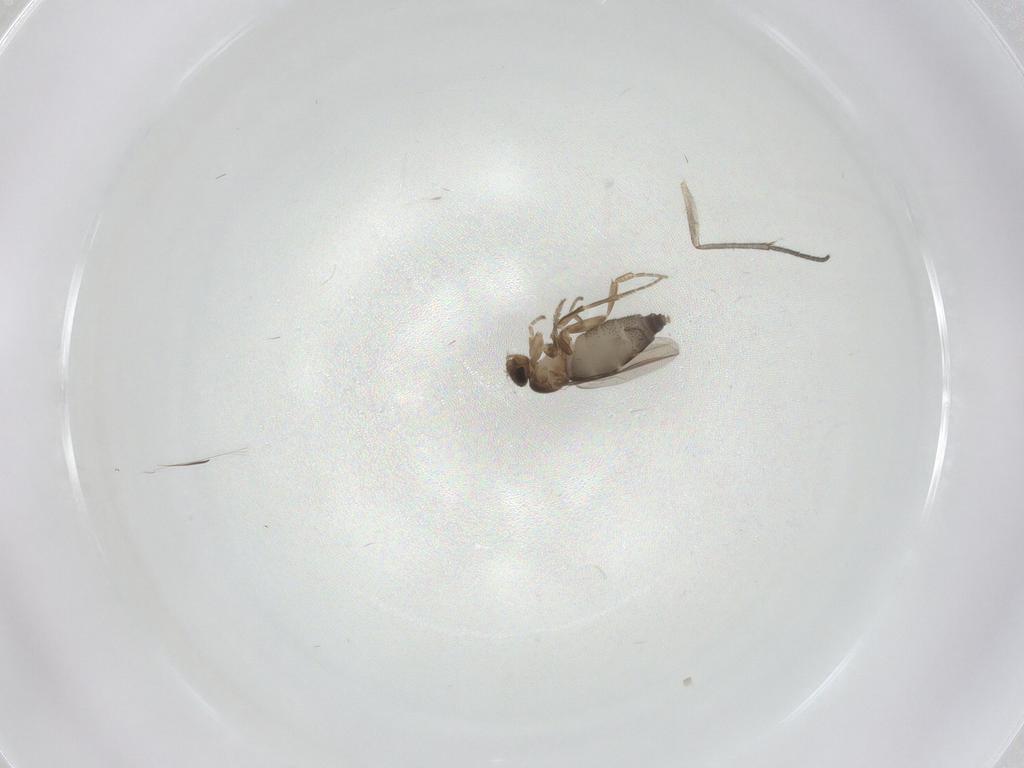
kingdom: Animalia
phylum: Arthropoda
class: Insecta
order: Diptera
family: Phoridae
